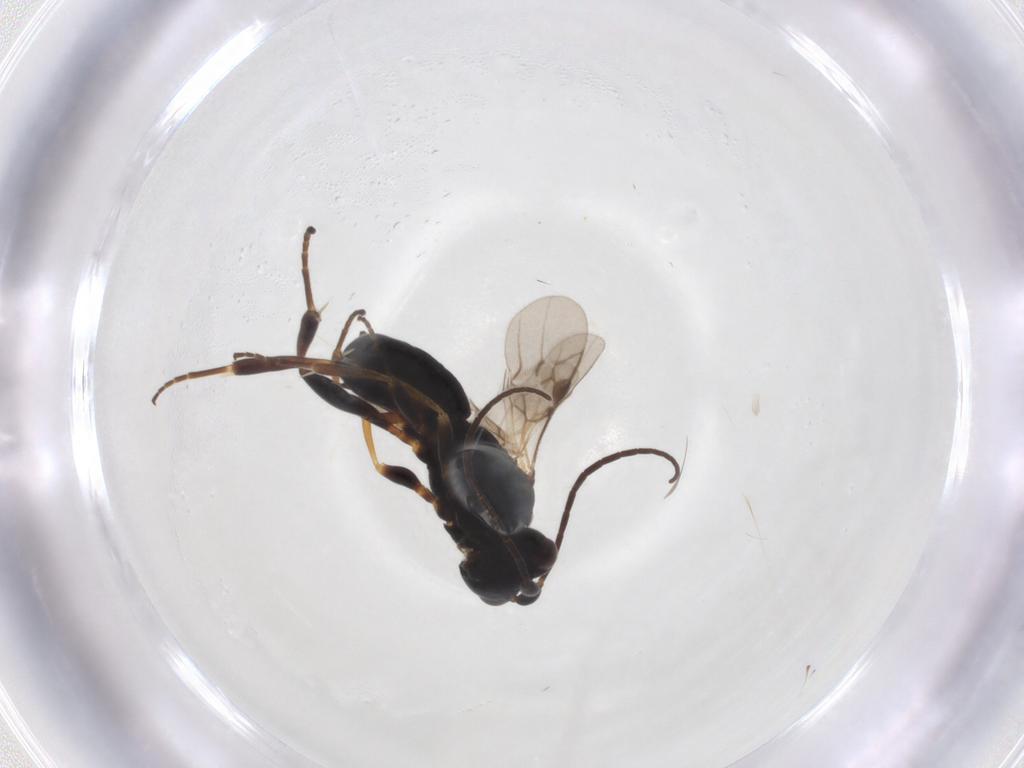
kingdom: Animalia
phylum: Arthropoda
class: Insecta
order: Hymenoptera
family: Braconidae
